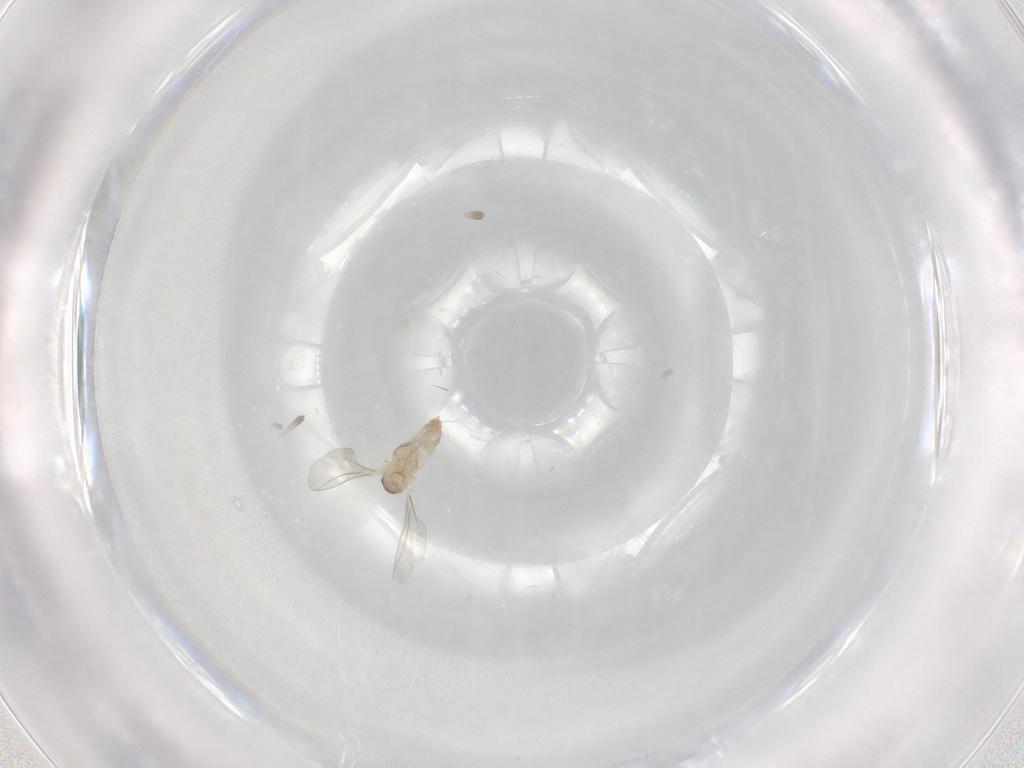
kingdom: Animalia
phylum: Arthropoda
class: Insecta
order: Diptera
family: Cecidomyiidae
